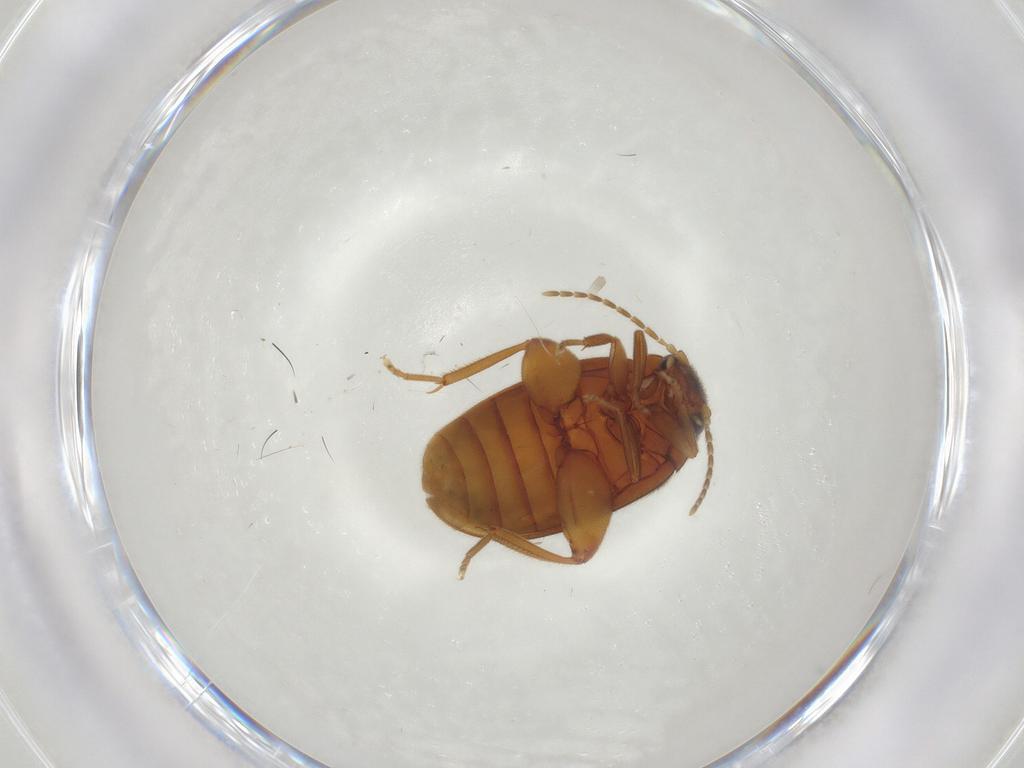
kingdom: Animalia
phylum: Arthropoda
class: Insecta
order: Coleoptera
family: Scirtidae
